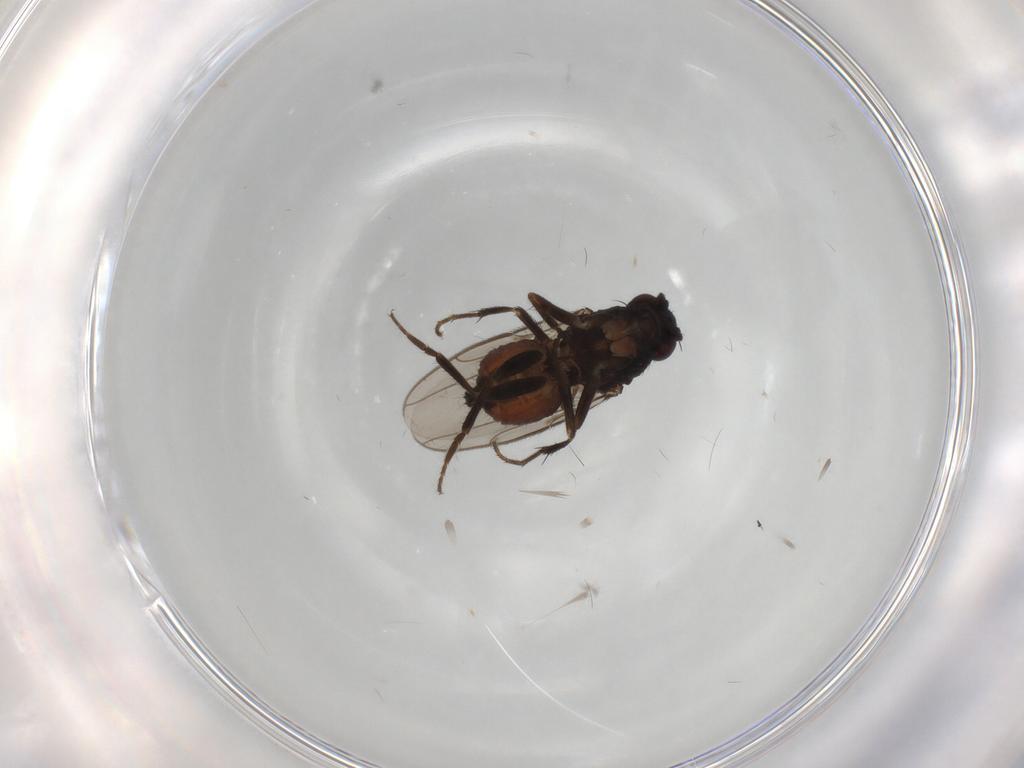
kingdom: Animalia
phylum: Arthropoda
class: Insecta
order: Diptera
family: Sphaeroceridae
